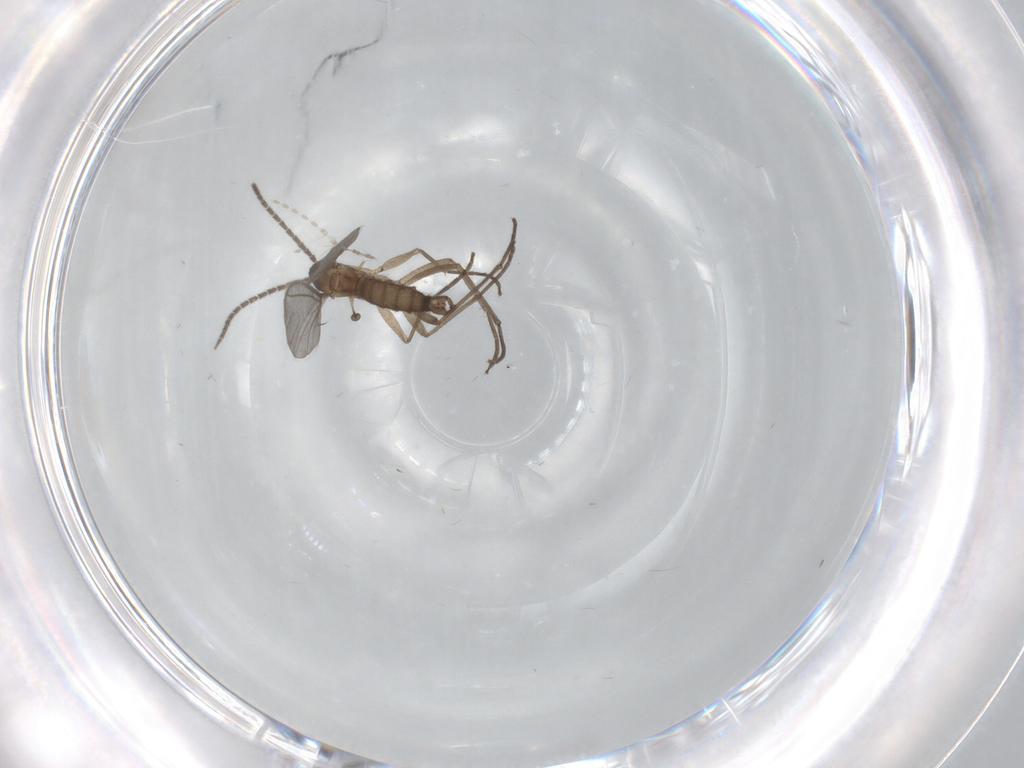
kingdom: Animalia
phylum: Arthropoda
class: Insecta
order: Diptera
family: Sciaridae
